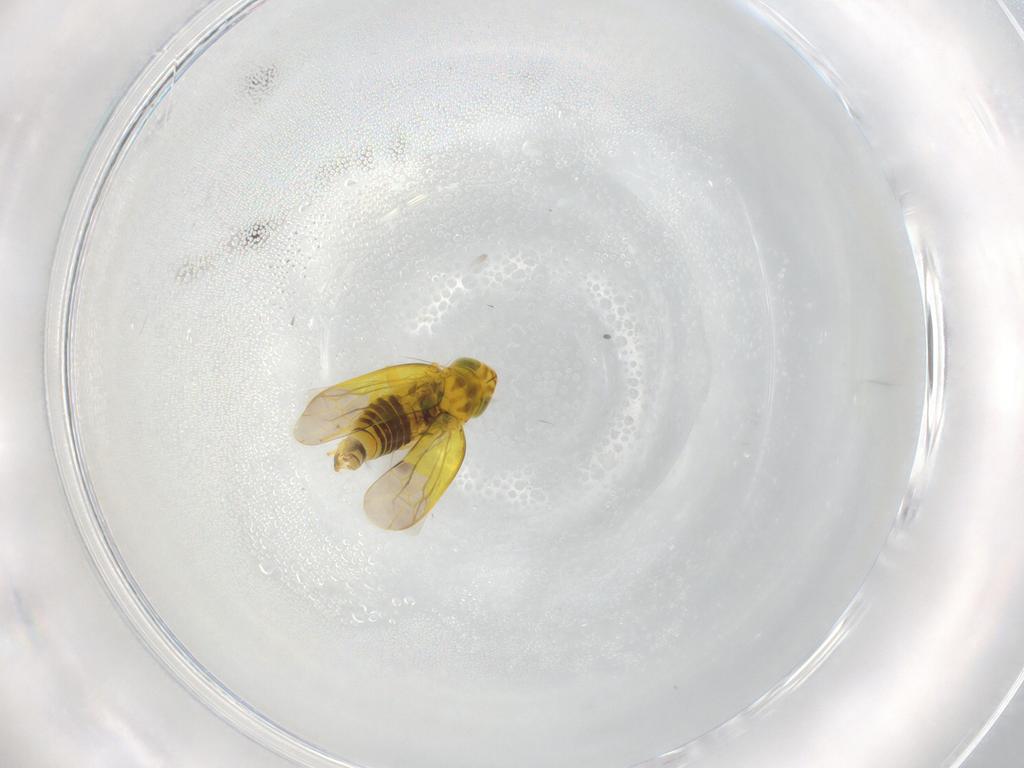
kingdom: Animalia
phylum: Arthropoda
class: Insecta
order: Hemiptera
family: Cicadellidae
